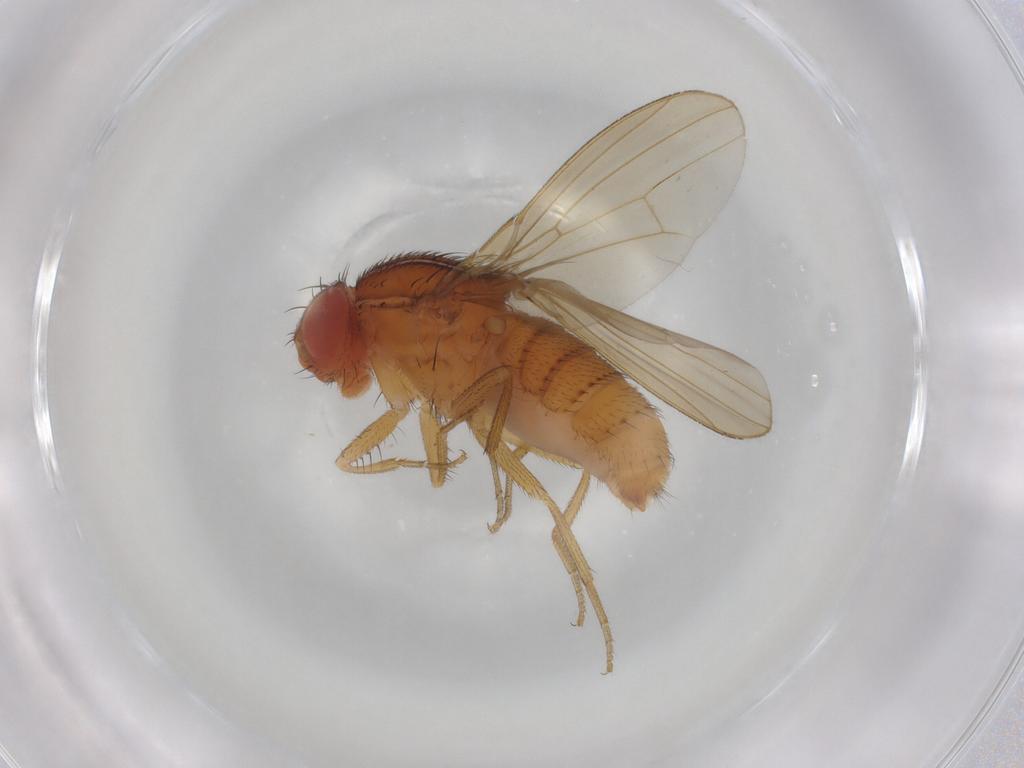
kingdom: Animalia
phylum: Arthropoda
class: Insecta
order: Diptera
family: Drosophilidae
